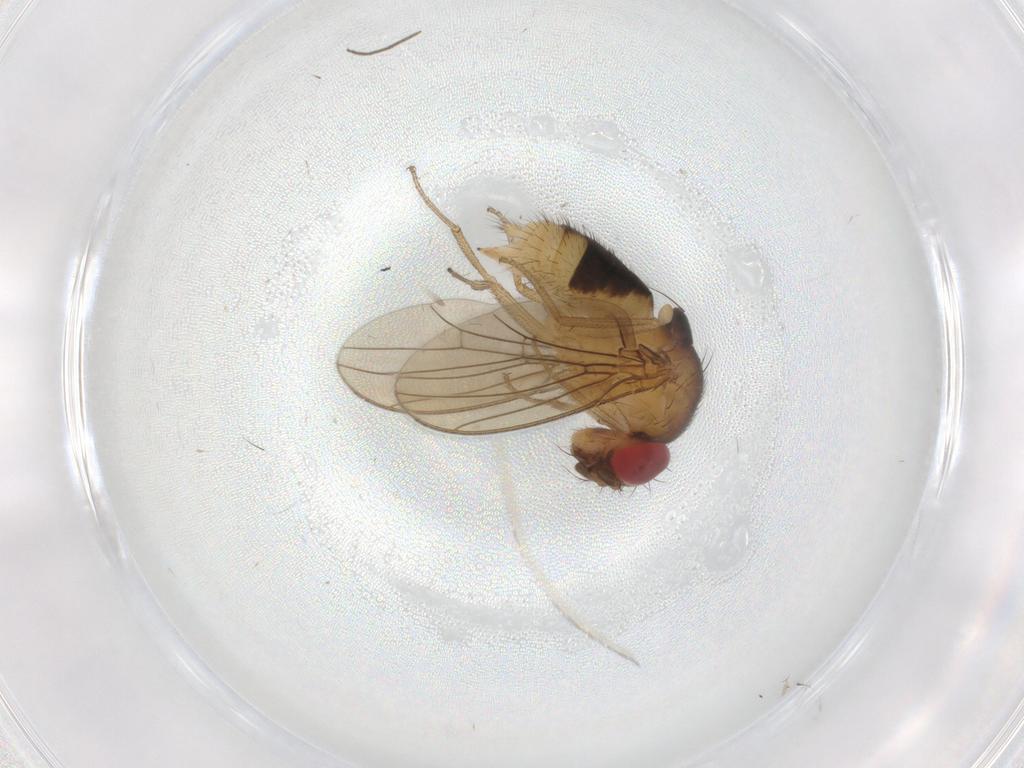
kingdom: Animalia
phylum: Arthropoda
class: Insecta
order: Diptera
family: Drosophilidae
